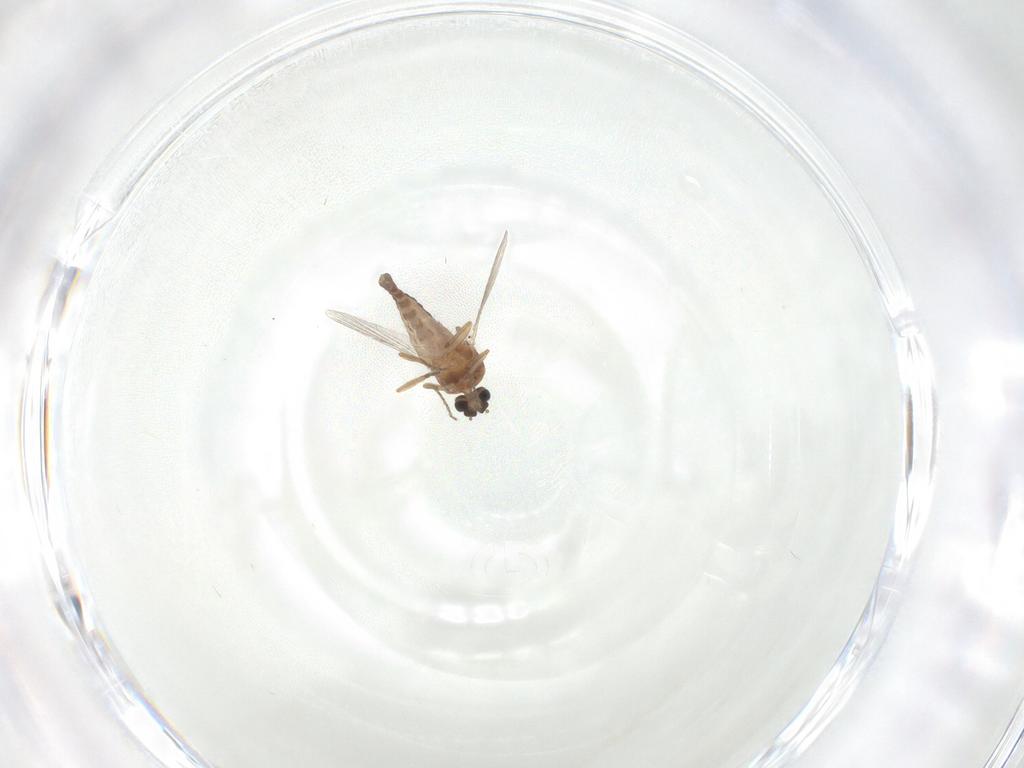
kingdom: Animalia
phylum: Arthropoda
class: Insecta
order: Diptera
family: Ceratopogonidae
